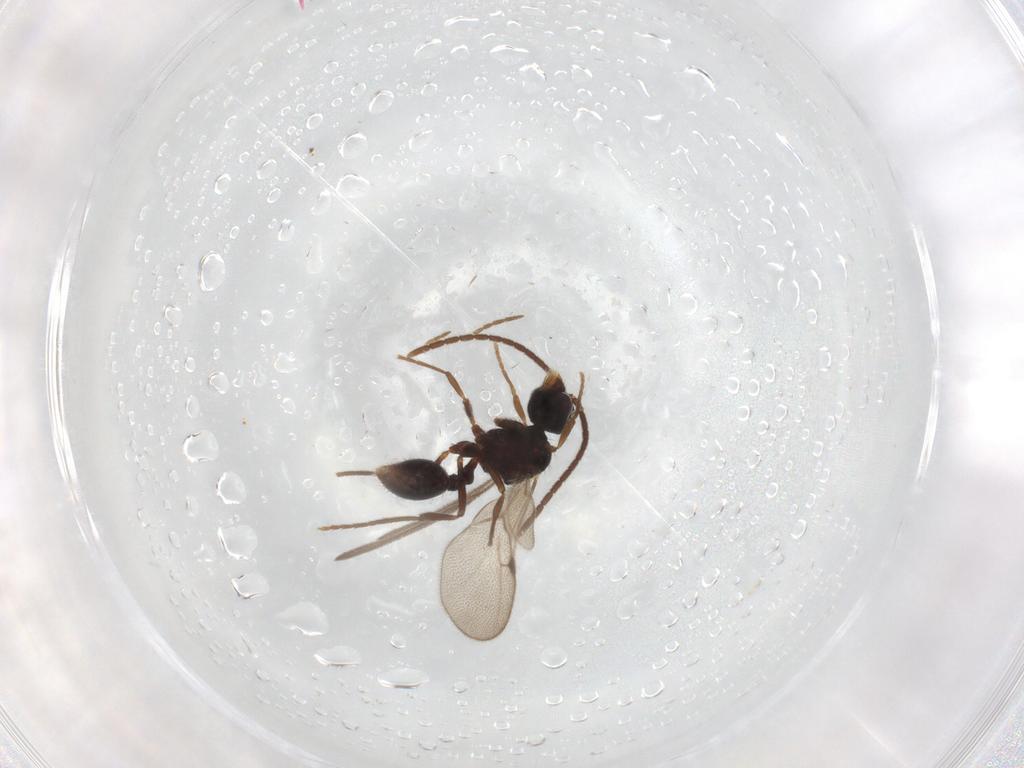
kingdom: Animalia
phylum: Arthropoda
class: Insecta
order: Hymenoptera
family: Formicidae
